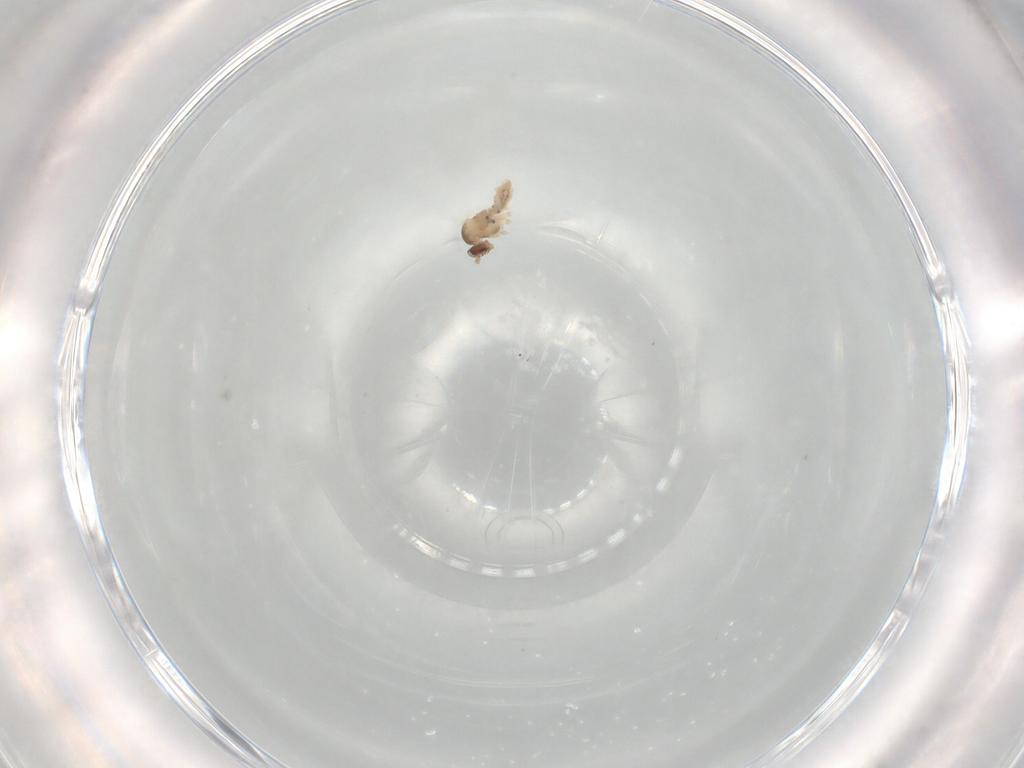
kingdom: Animalia
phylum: Arthropoda
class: Insecta
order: Diptera
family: Cecidomyiidae
